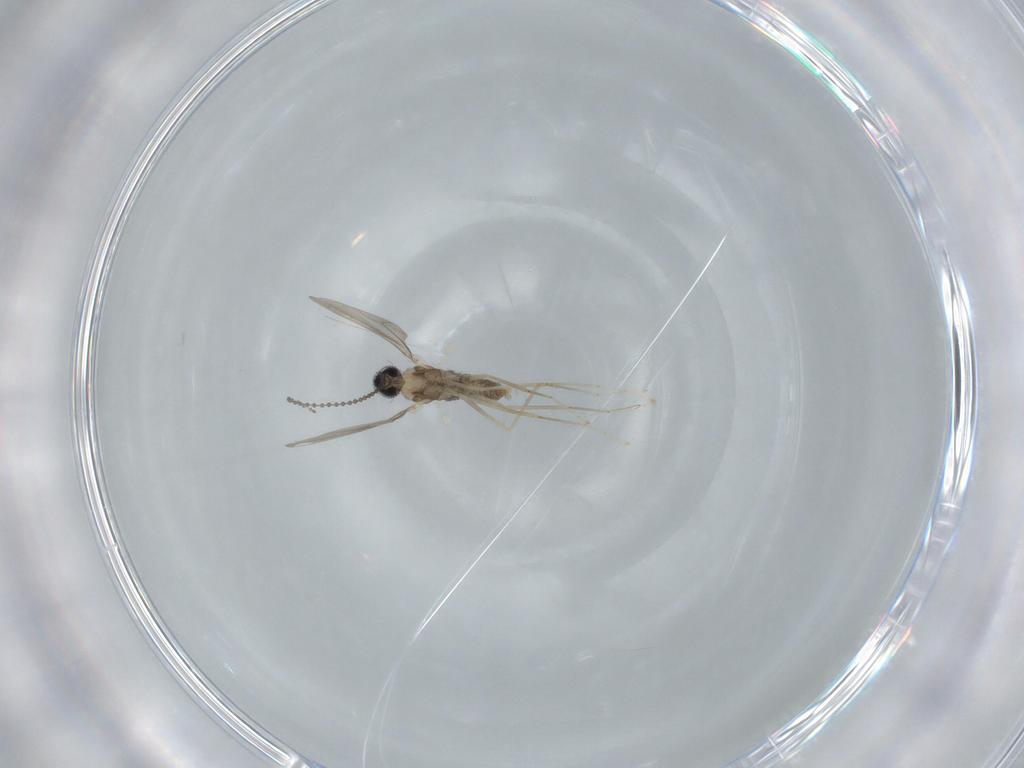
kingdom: Animalia
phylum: Arthropoda
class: Insecta
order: Diptera
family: Cecidomyiidae
